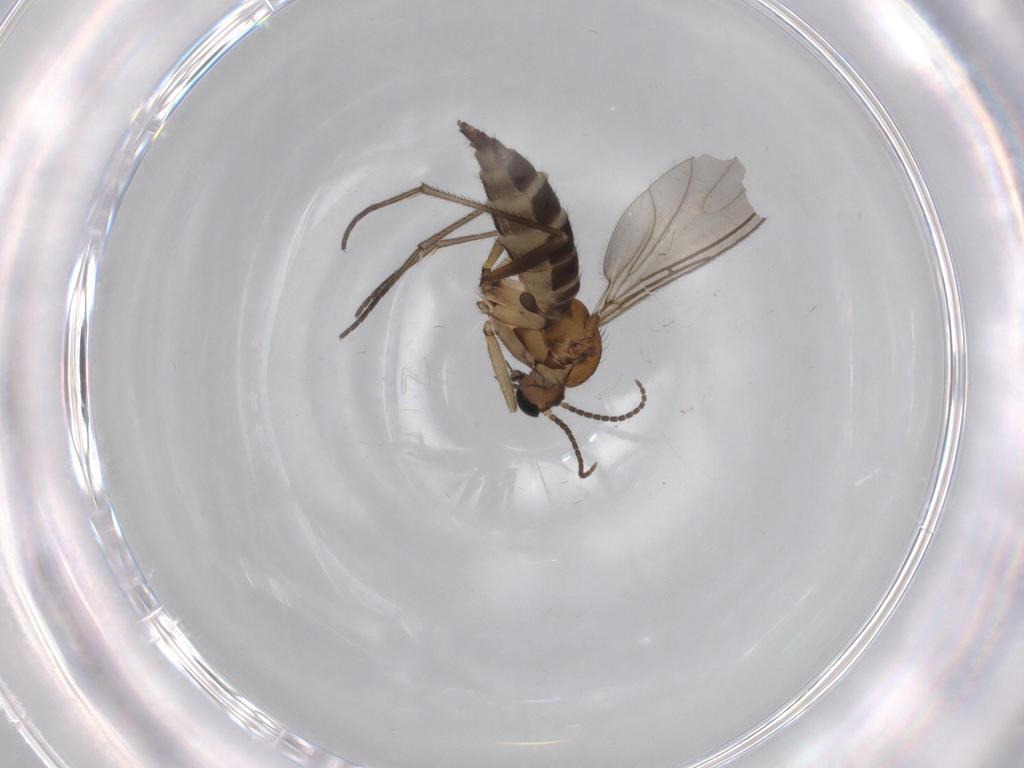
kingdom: Animalia
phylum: Arthropoda
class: Insecta
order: Diptera
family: Sciaridae
